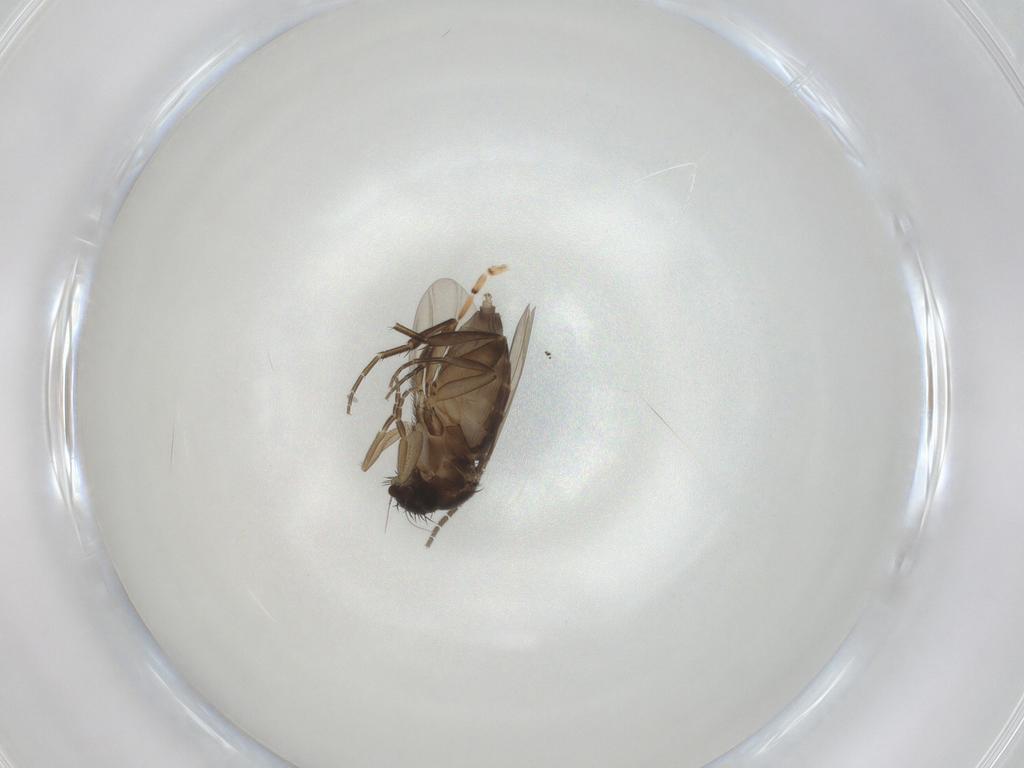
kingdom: Animalia
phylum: Arthropoda
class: Insecta
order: Diptera
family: Phoridae
